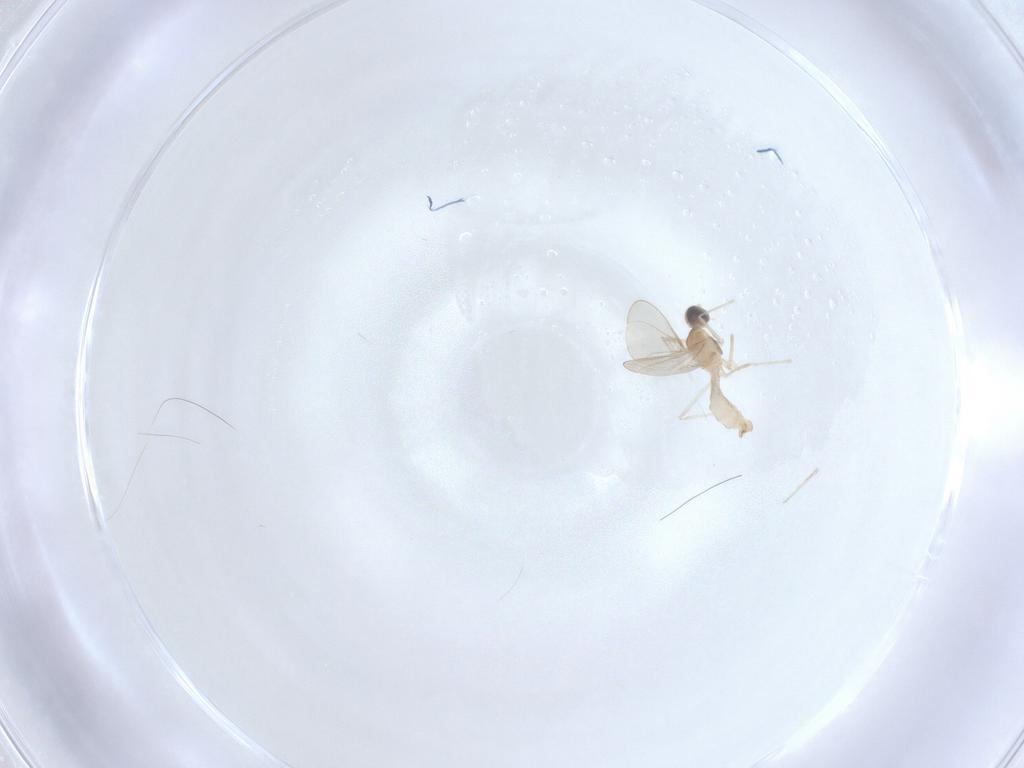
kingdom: Animalia
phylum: Arthropoda
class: Insecta
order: Diptera
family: Cecidomyiidae
